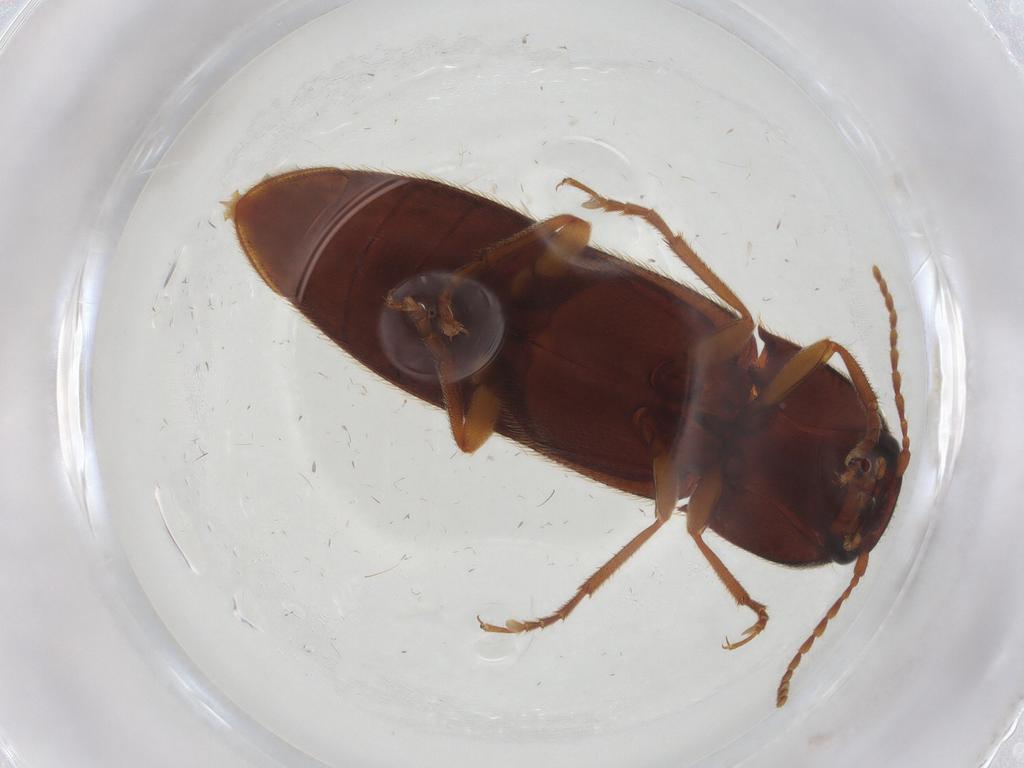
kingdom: Animalia
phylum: Arthropoda
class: Insecta
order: Coleoptera
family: Elateridae
